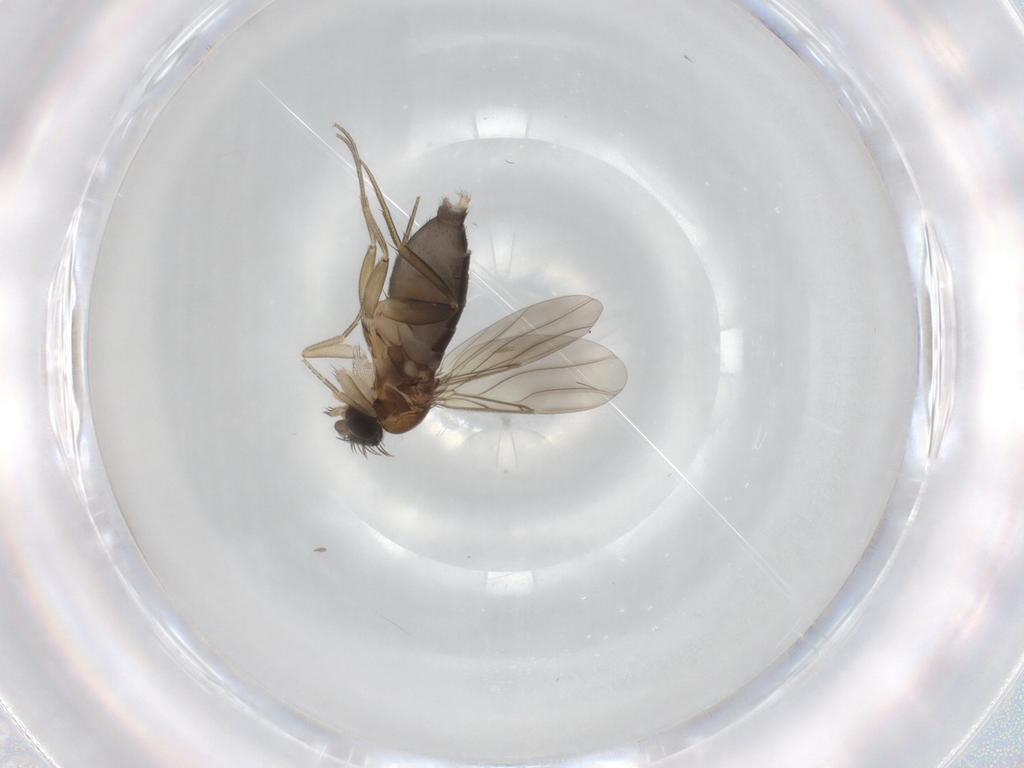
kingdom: Animalia
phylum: Arthropoda
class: Insecta
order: Diptera
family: Phoridae
